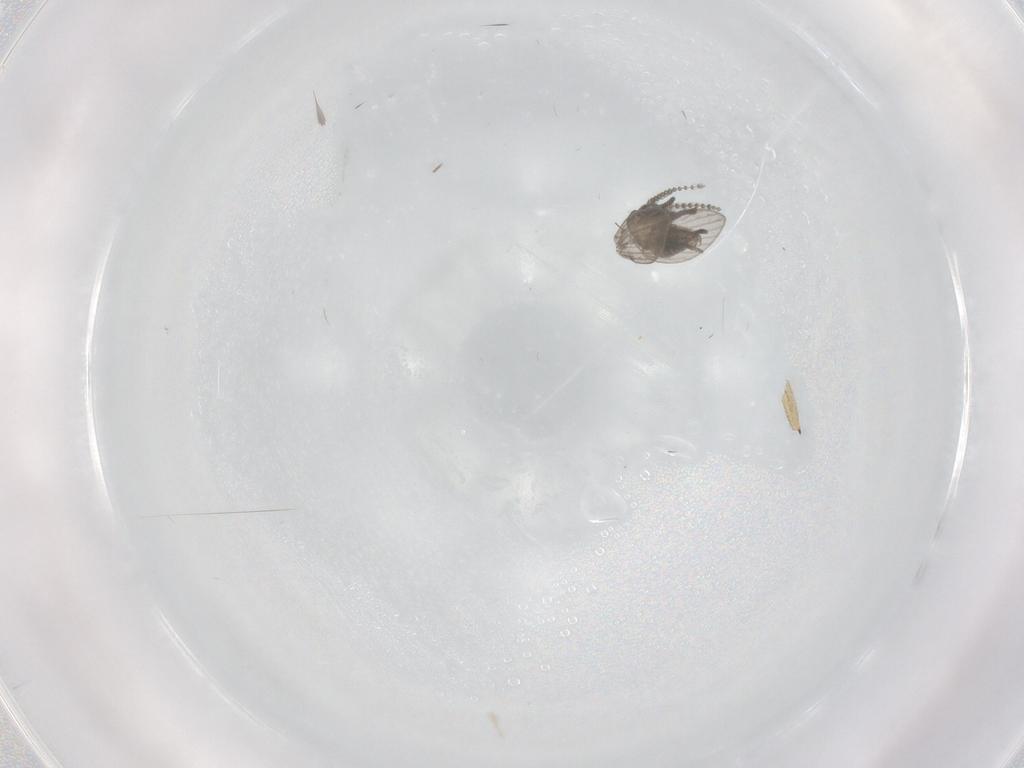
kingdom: Animalia
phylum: Arthropoda
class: Insecta
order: Diptera
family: Psychodidae
